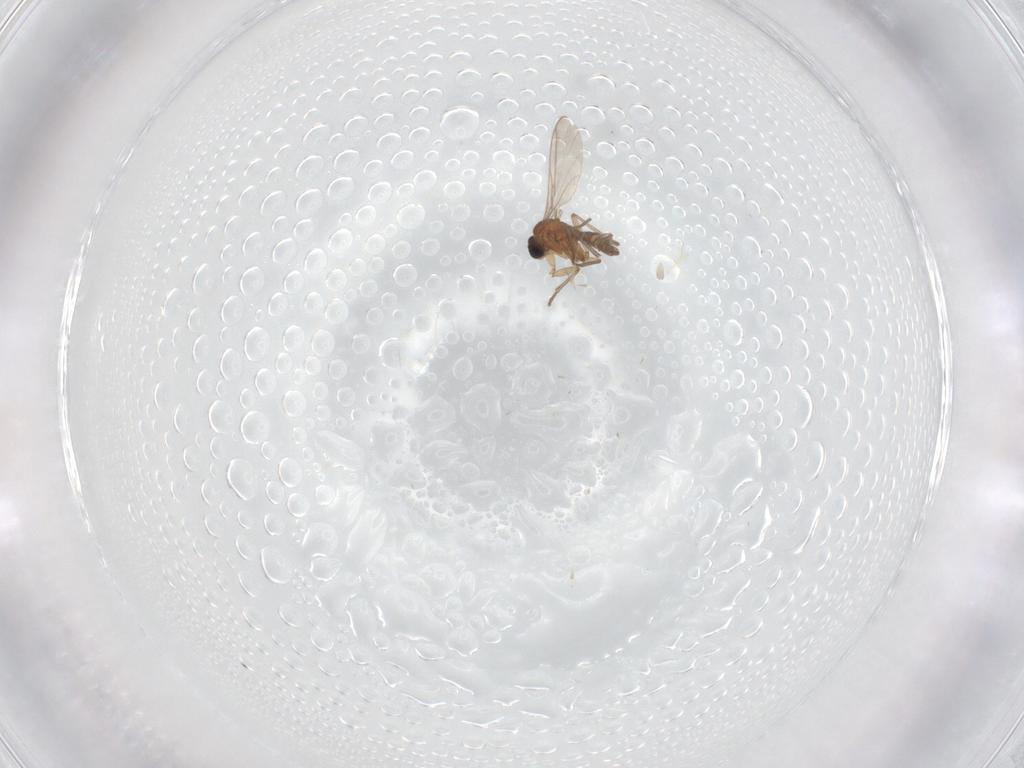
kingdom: Animalia
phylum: Arthropoda
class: Insecta
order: Diptera
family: Cecidomyiidae
